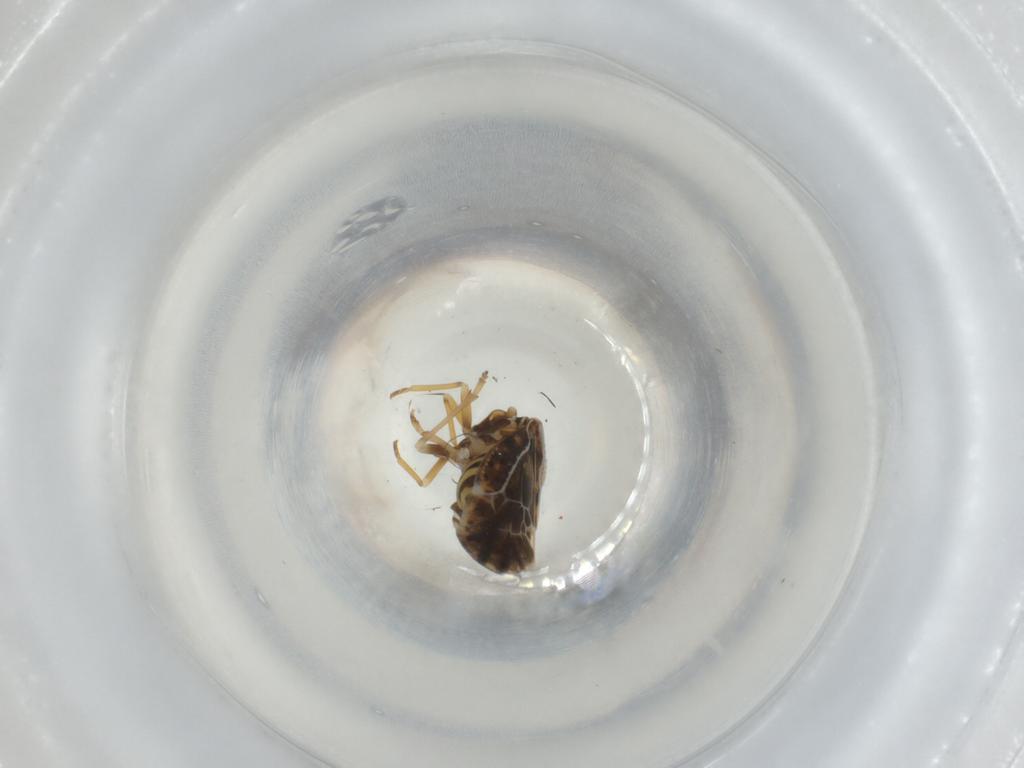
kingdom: Animalia
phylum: Arthropoda
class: Insecta
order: Hemiptera
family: Meenoplidae
